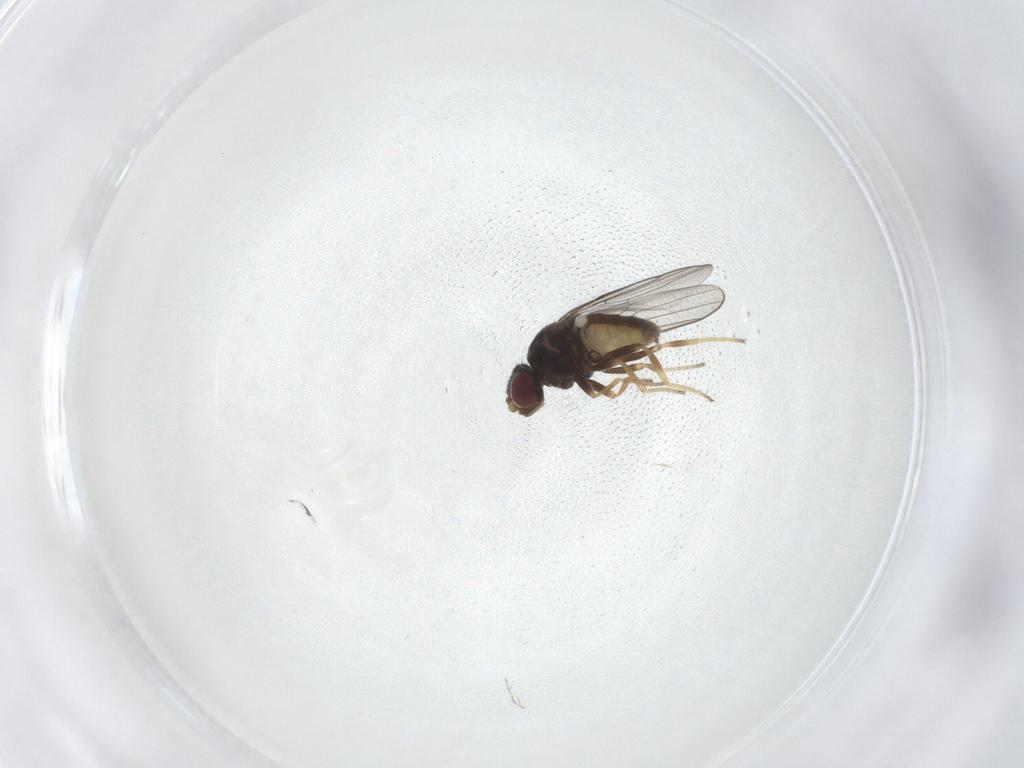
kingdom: Animalia
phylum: Arthropoda
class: Insecta
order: Diptera
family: Chloropidae
